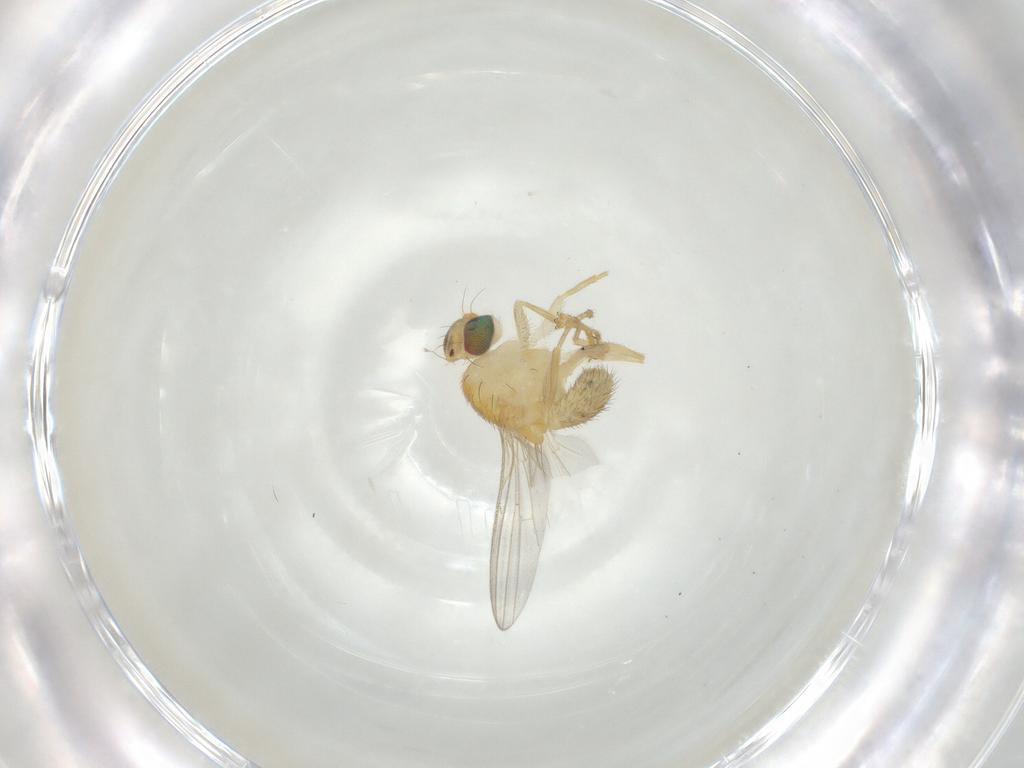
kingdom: Animalia
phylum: Arthropoda
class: Insecta
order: Diptera
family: Chyromyidae
